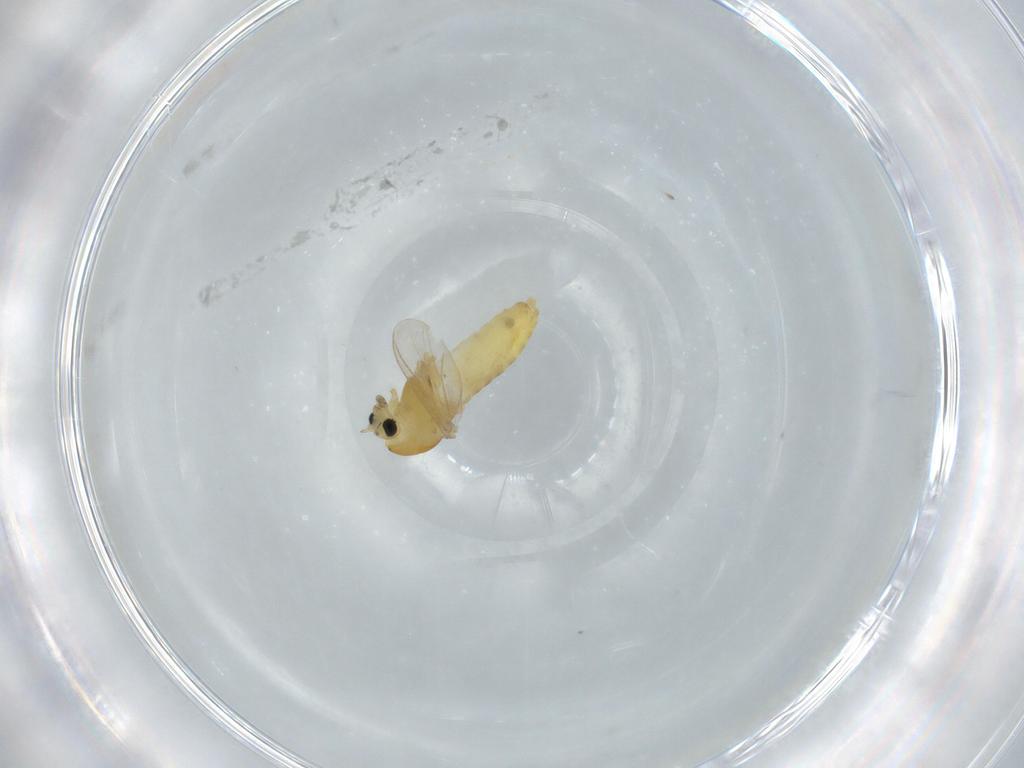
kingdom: Animalia
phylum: Arthropoda
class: Insecta
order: Diptera
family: Chironomidae
